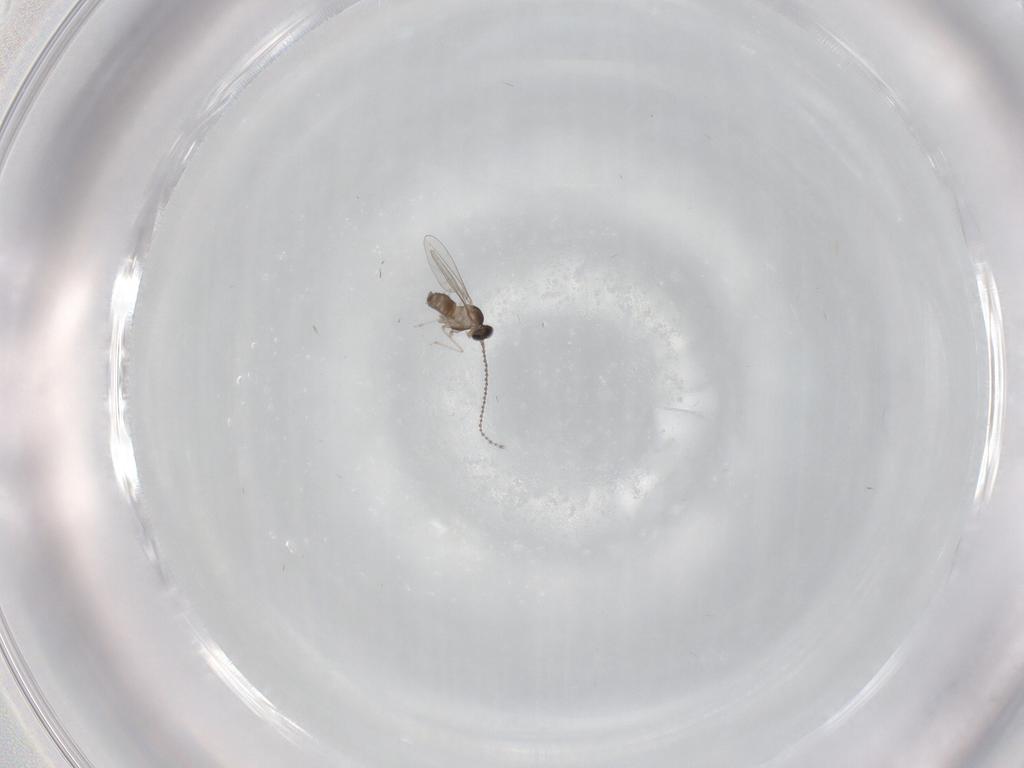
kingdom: Animalia
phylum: Arthropoda
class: Insecta
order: Diptera
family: Cecidomyiidae
